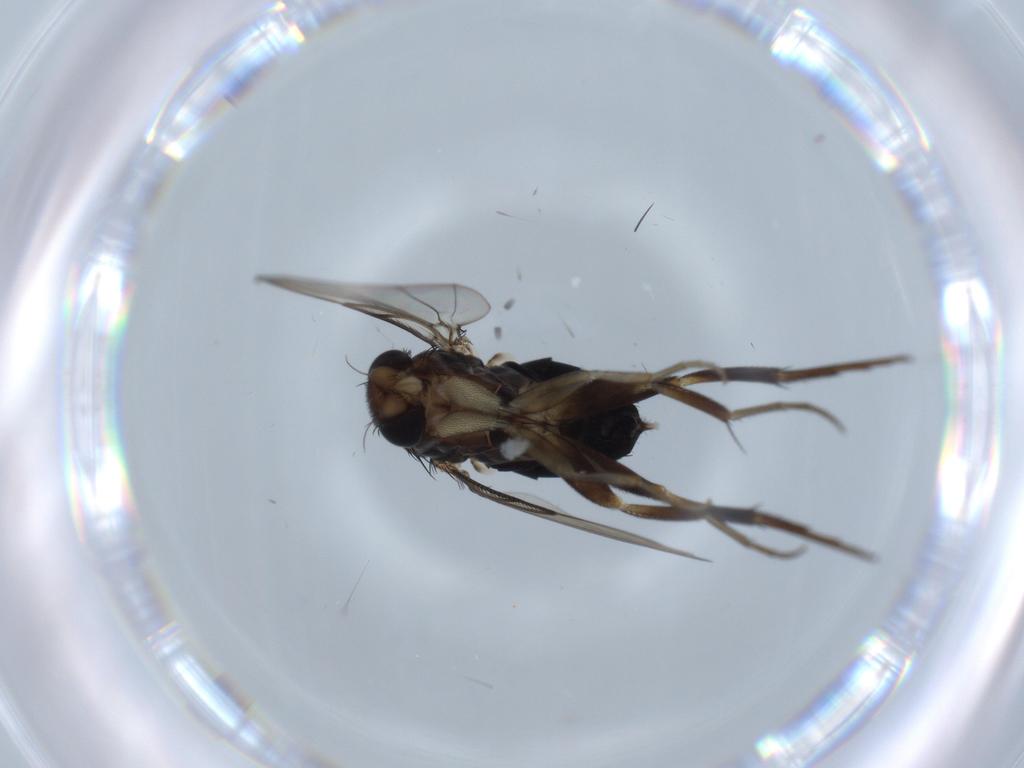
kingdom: Animalia
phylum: Arthropoda
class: Insecta
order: Diptera
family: Phoridae
